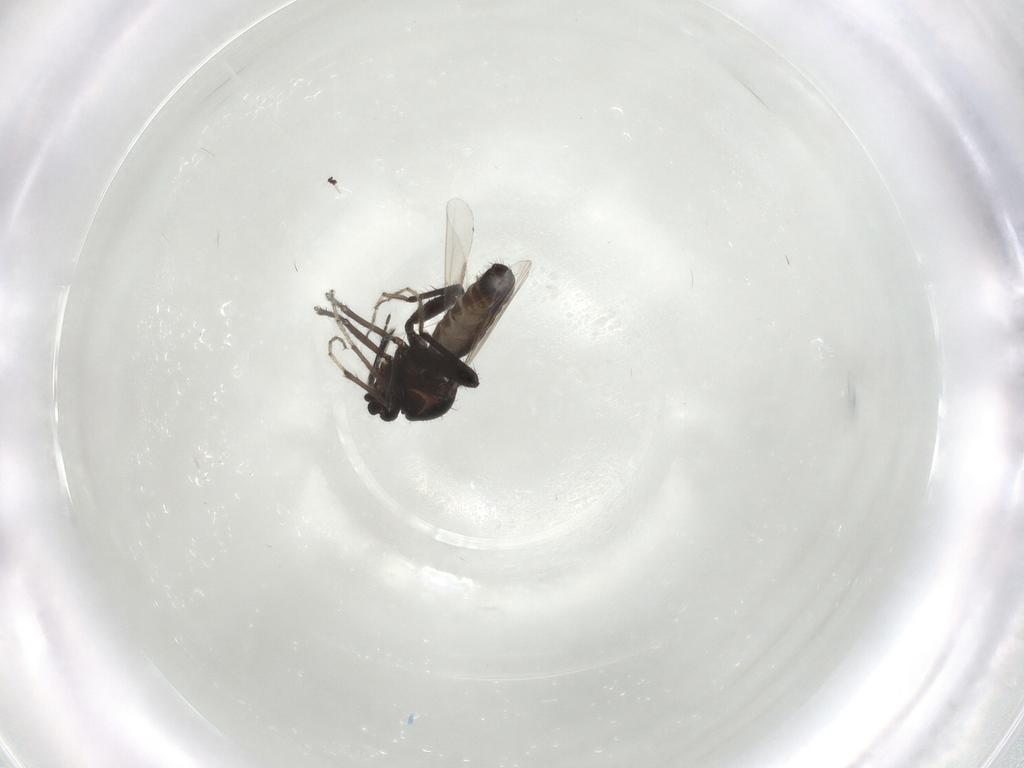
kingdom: Animalia
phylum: Arthropoda
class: Insecta
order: Diptera
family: Ceratopogonidae
